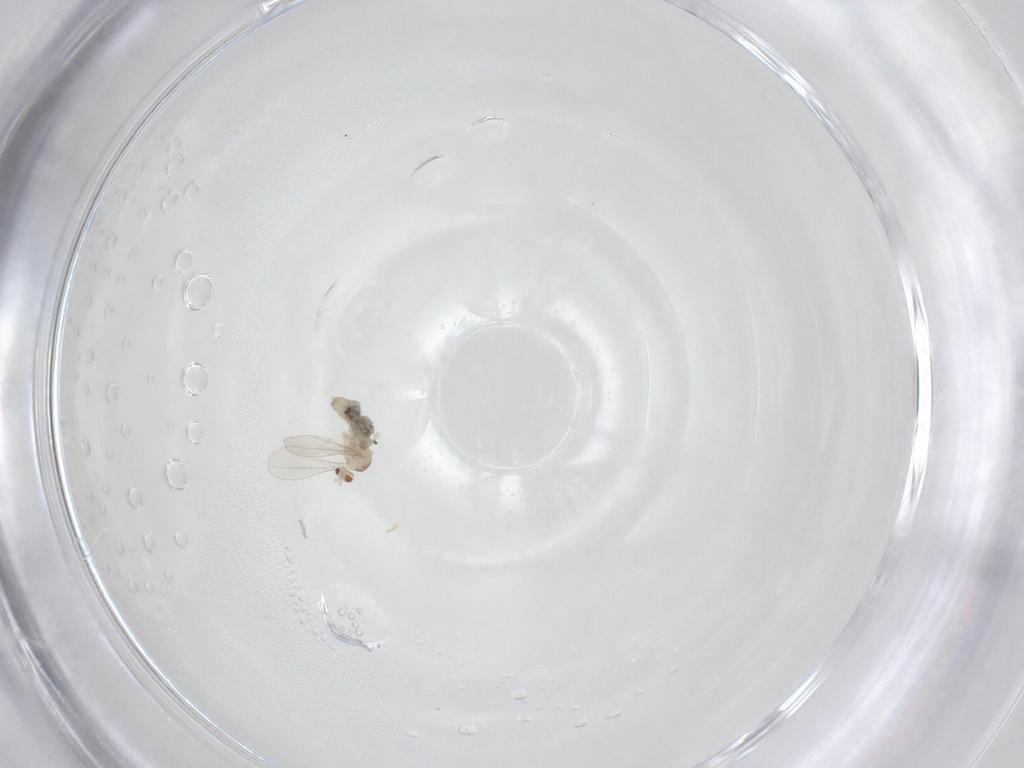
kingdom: Animalia
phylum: Arthropoda
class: Insecta
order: Diptera
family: Cecidomyiidae
